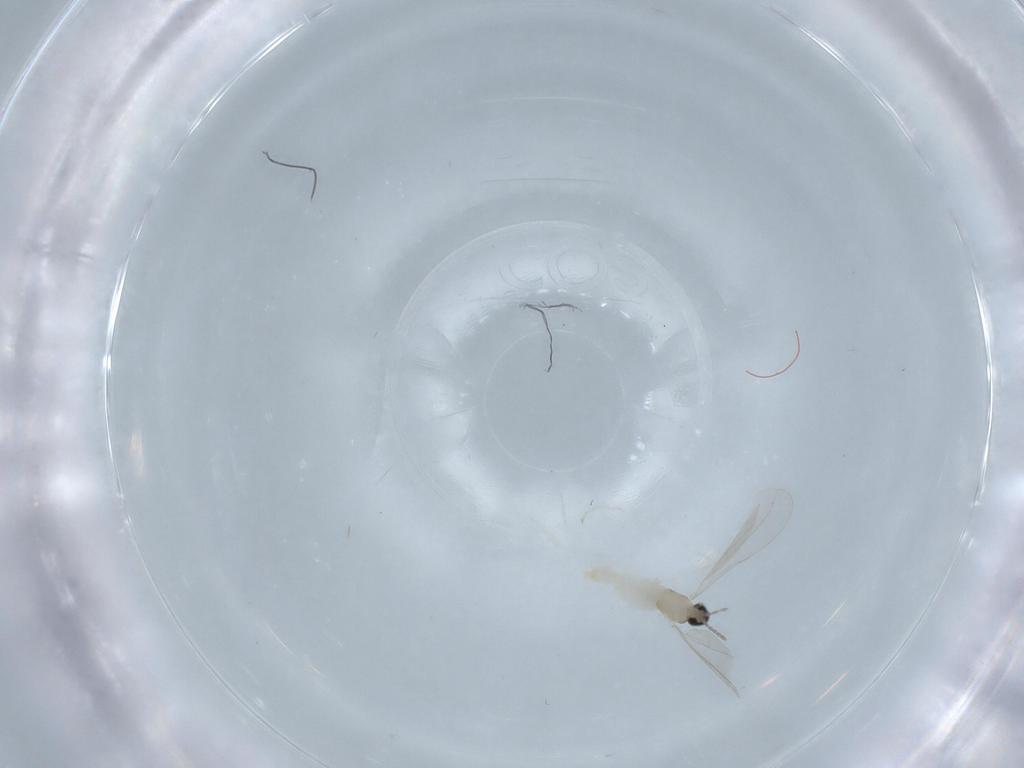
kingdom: Animalia
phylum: Arthropoda
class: Insecta
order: Diptera
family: Cecidomyiidae
